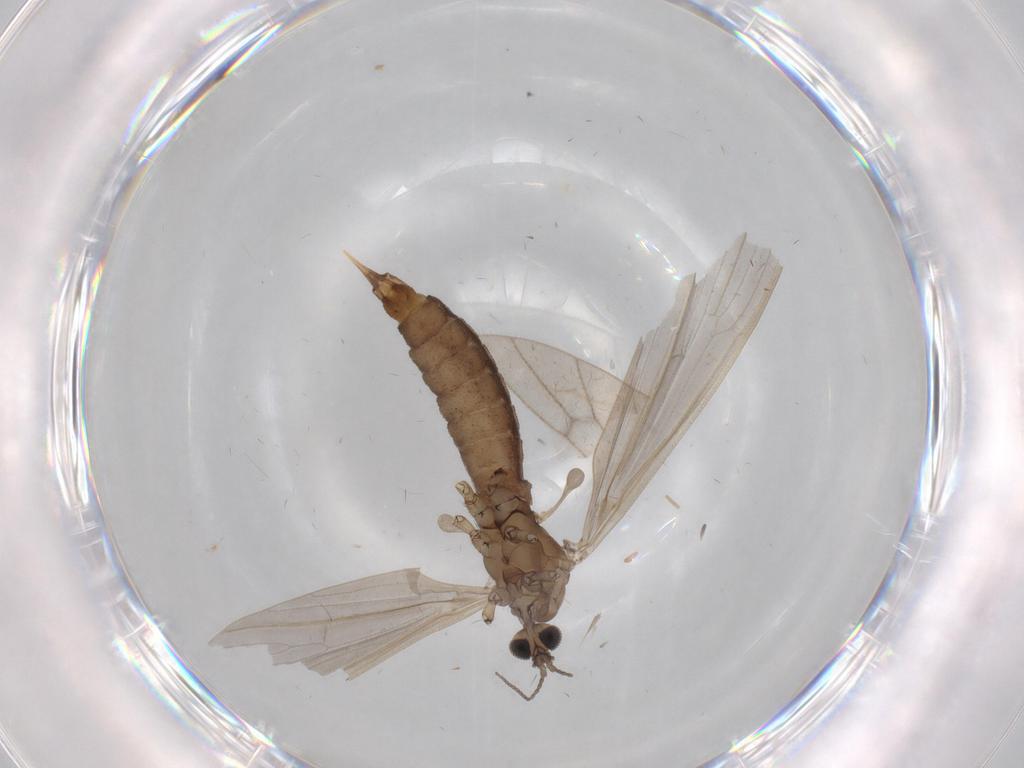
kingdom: Animalia
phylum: Arthropoda
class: Insecta
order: Diptera
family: Limoniidae
